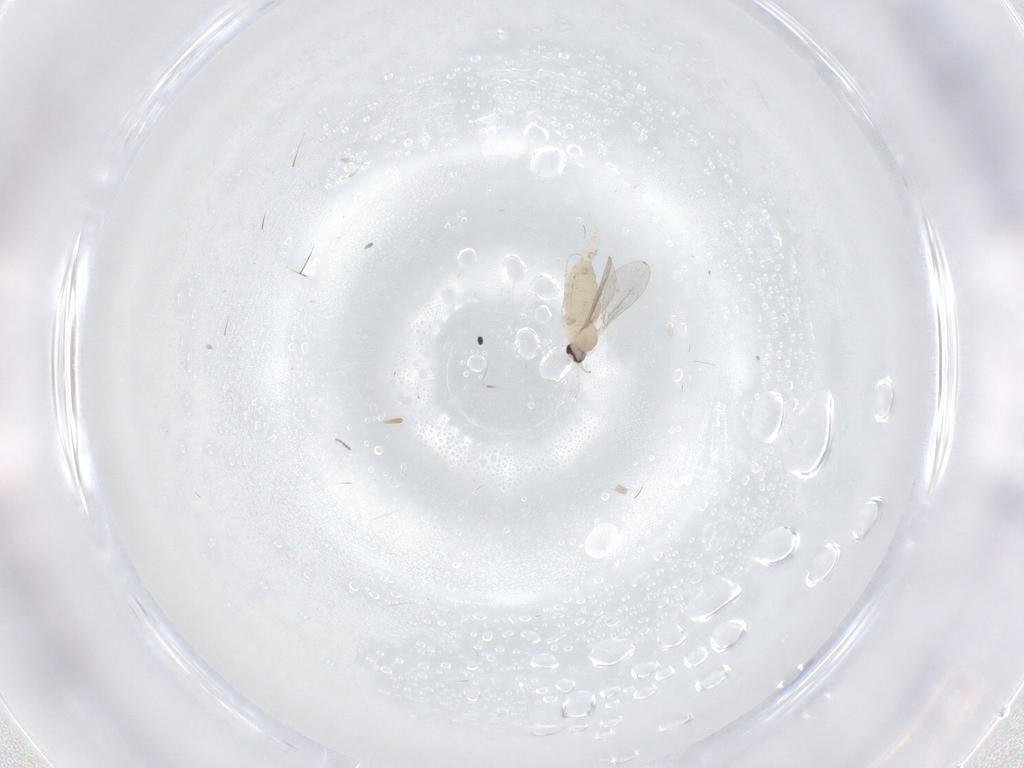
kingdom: Animalia
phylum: Arthropoda
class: Insecta
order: Diptera
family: Cecidomyiidae
